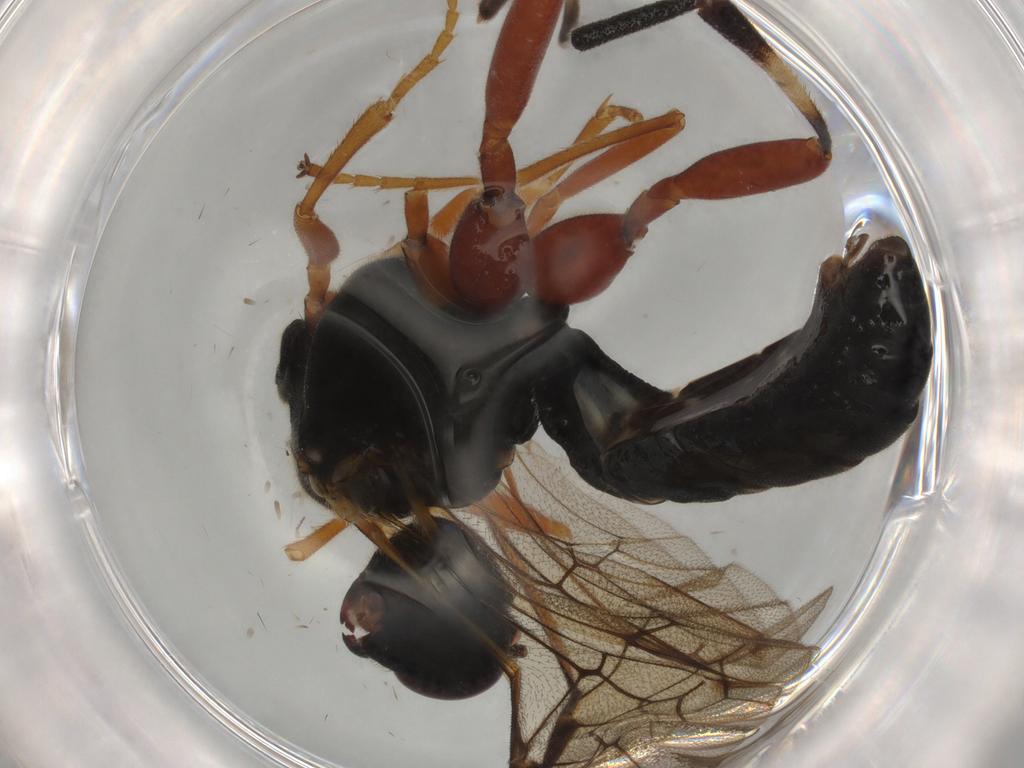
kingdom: Animalia
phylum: Arthropoda
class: Insecta
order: Hymenoptera
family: Ichneumonidae
